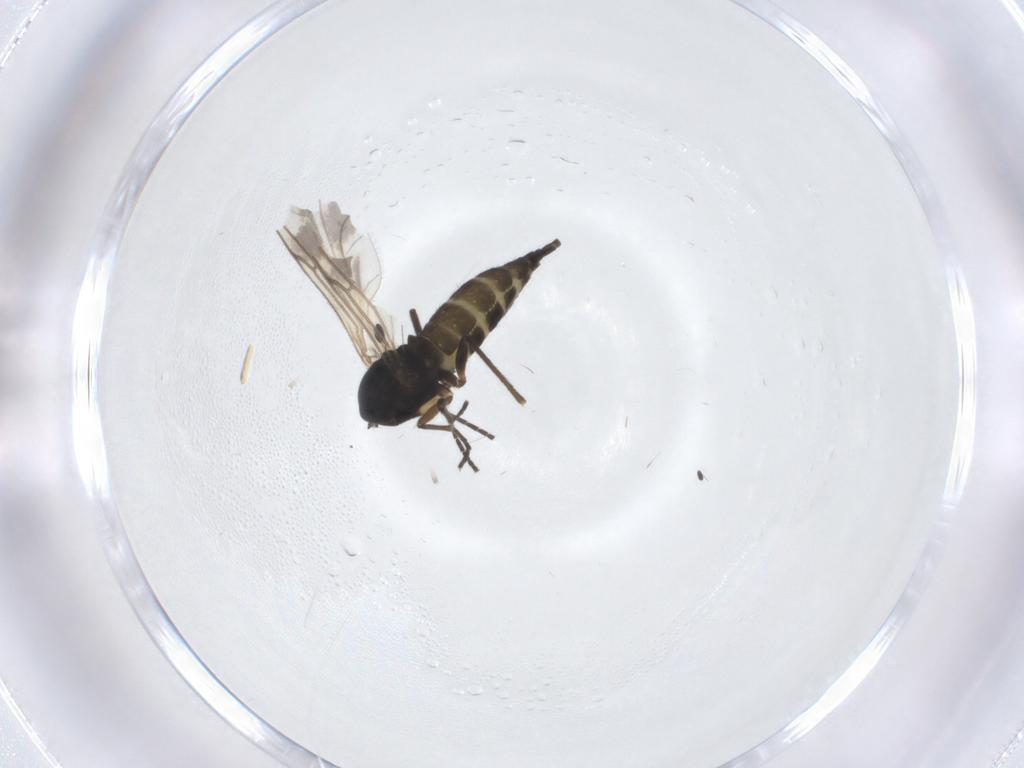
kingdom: Animalia
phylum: Arthropoda
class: Insecta
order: Diptera
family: Sciaridae
